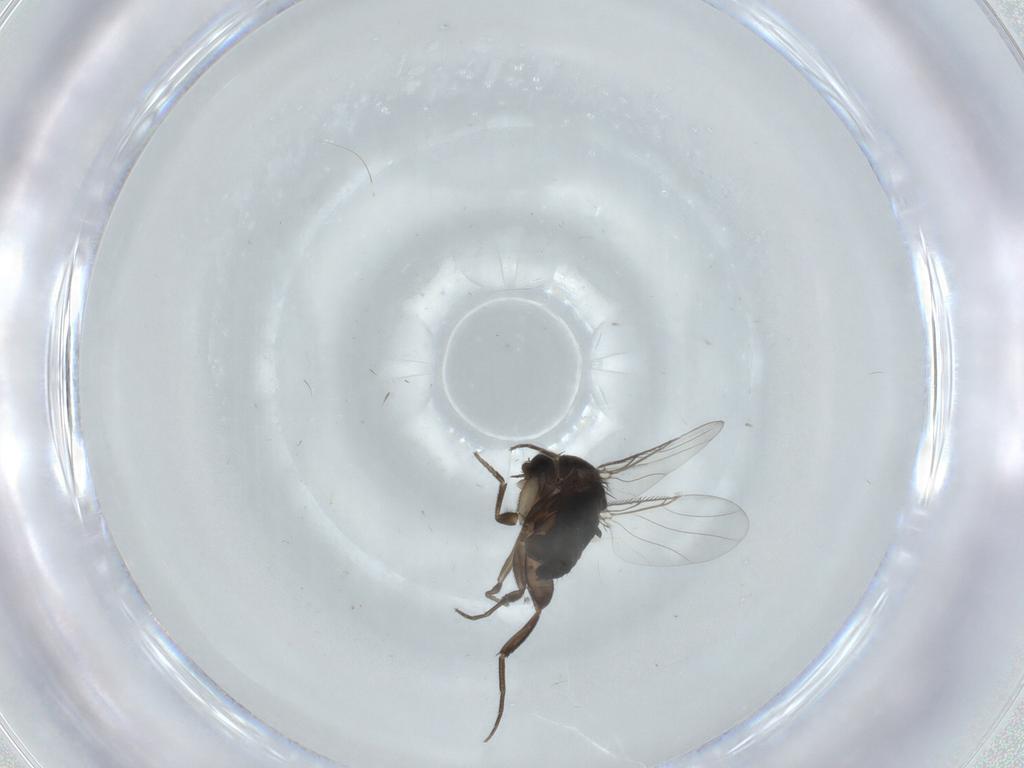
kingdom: Animalia
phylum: Arthropoda
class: Insecta
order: Diptera
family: Phoridae
